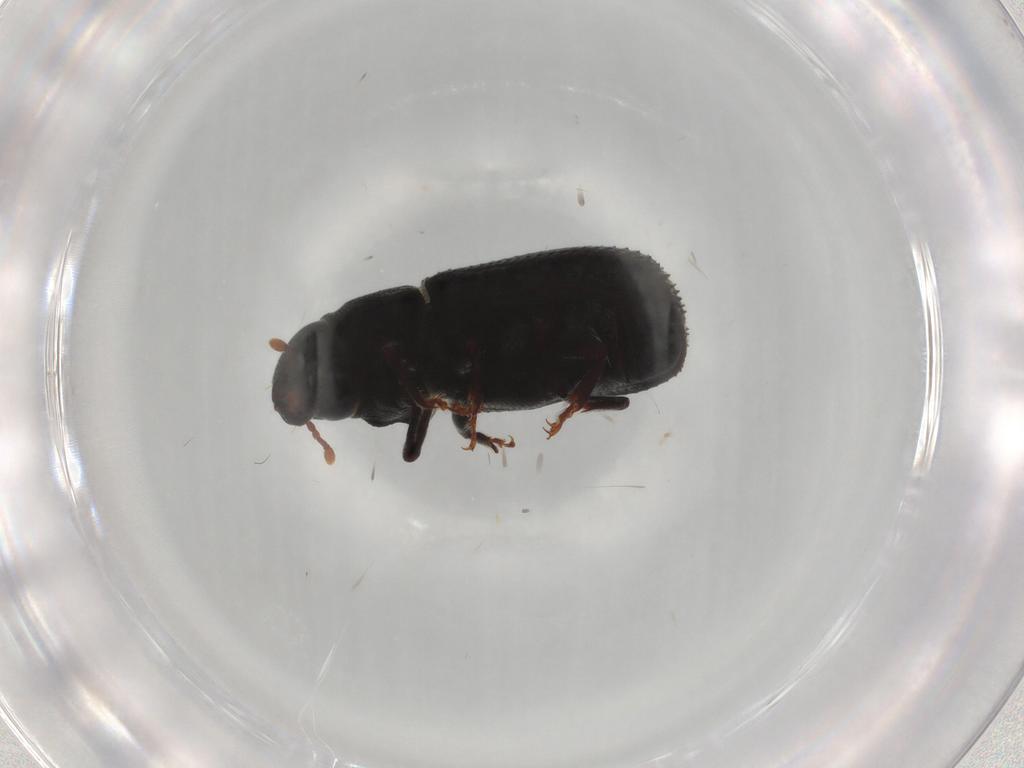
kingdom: Animalia
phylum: Arthropoda
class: Insecta
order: Coleoptera
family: Curculionidae
